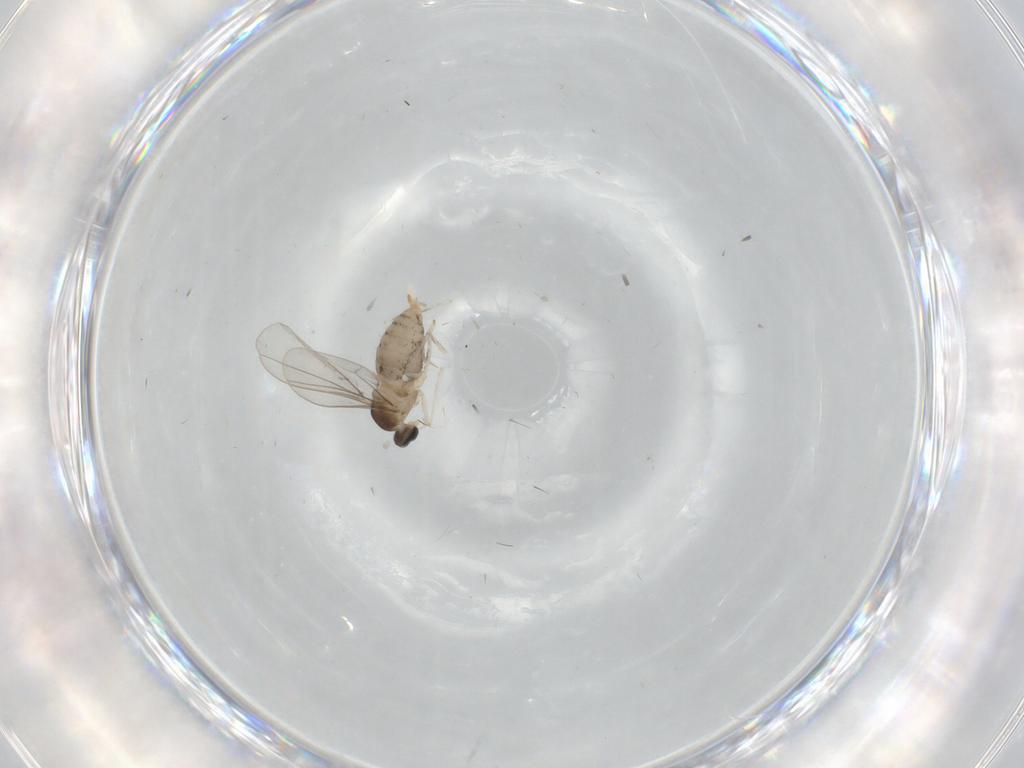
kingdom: Animalia
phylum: Arthropoda
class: Insecta
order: Diptera
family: Cecidomyiidae
